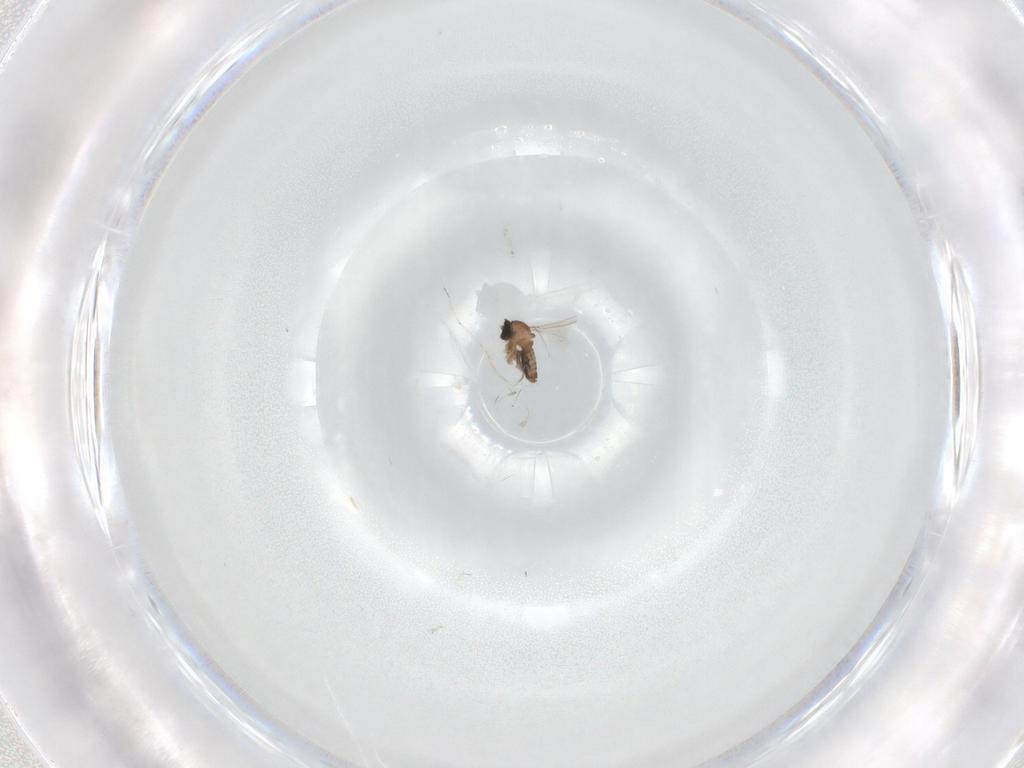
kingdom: Animalia
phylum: Arthropoda
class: Insecta
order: Diptera
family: Cecidomyiidae
